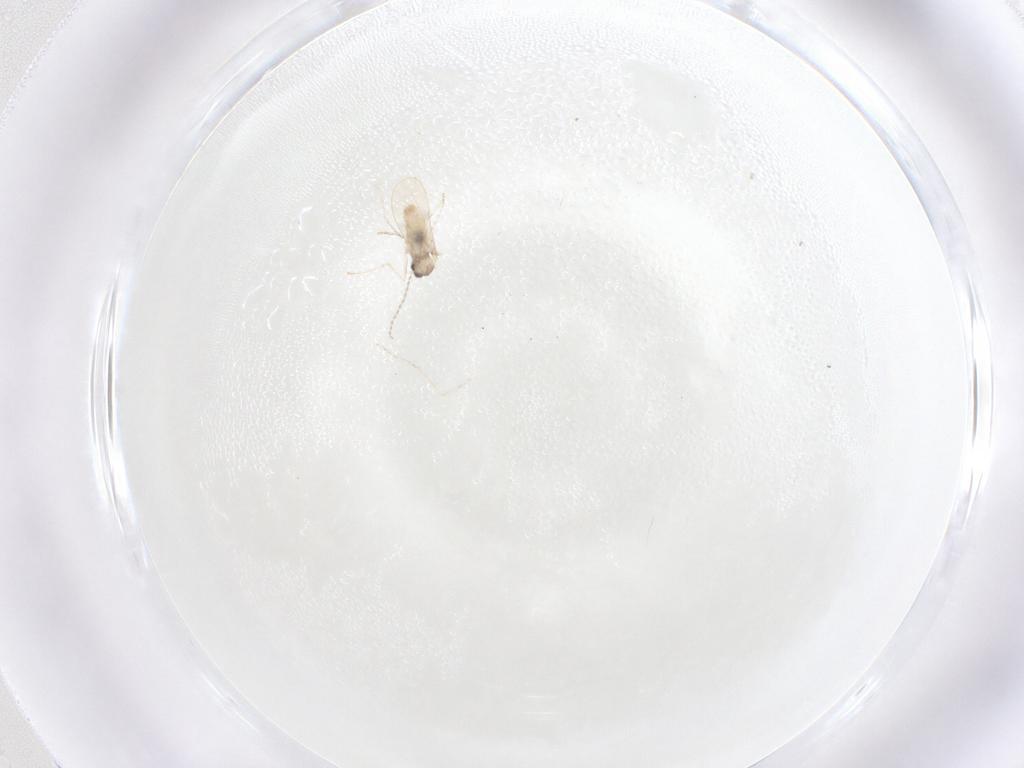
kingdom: Animalia
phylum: Arthropoda
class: Insecta
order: Diptera
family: Cecidomyiidae
